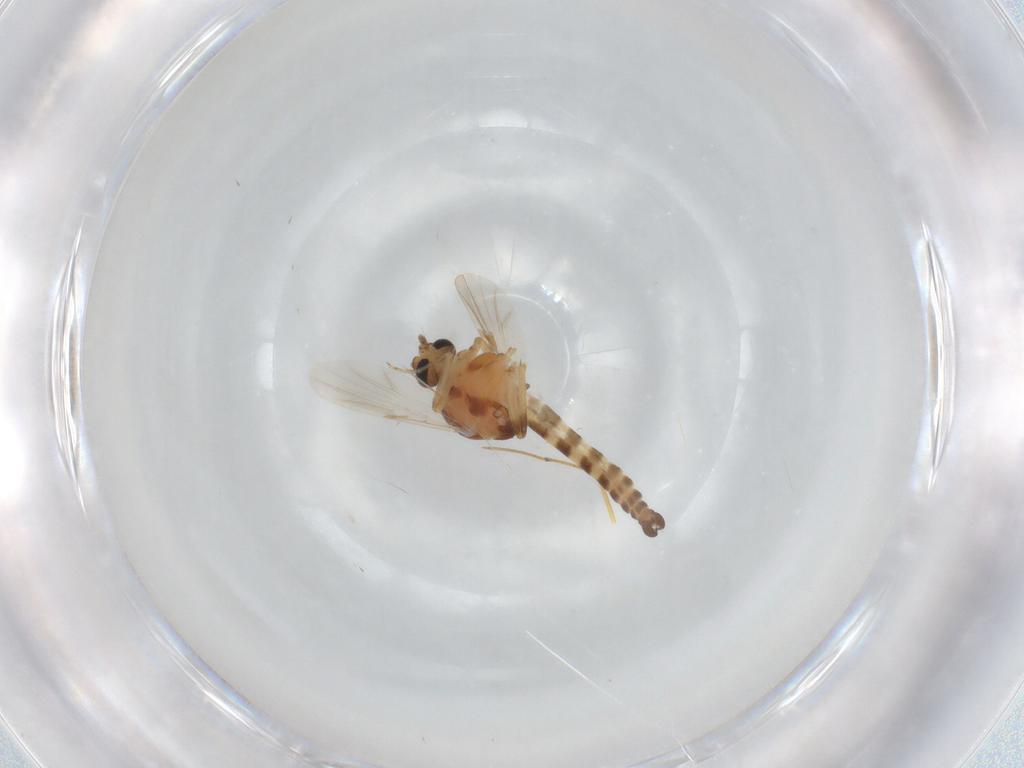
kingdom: Animalia
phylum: Arthropoda
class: Insecta
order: Diptera
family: Ceratopogonidae
